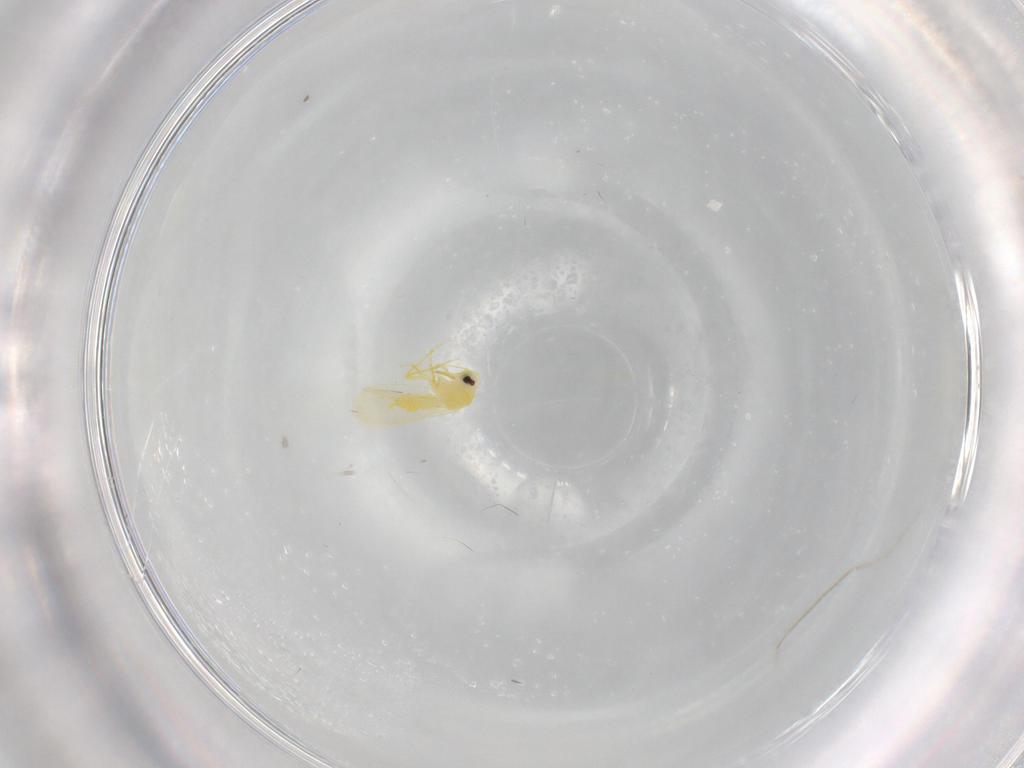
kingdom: Animalia
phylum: Arthropoda
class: Insecta
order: Hemiptera
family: Aleyrodidae
